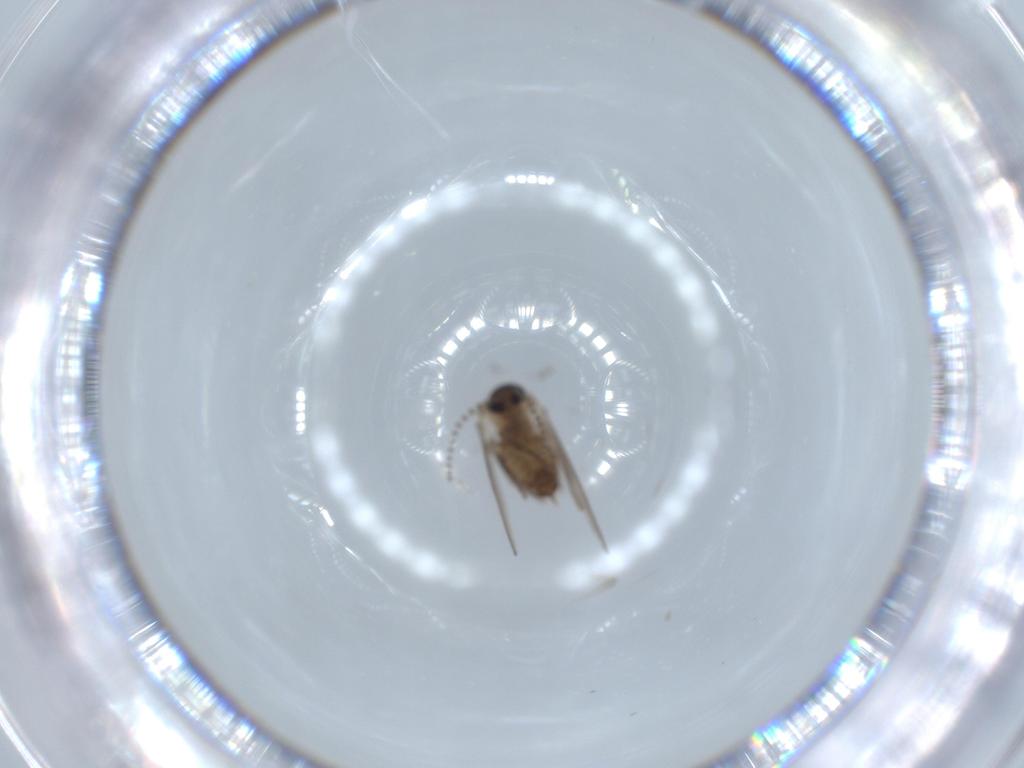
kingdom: Animalia
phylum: Arthropoda
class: Insecta
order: Diptera
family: Psychodidae
